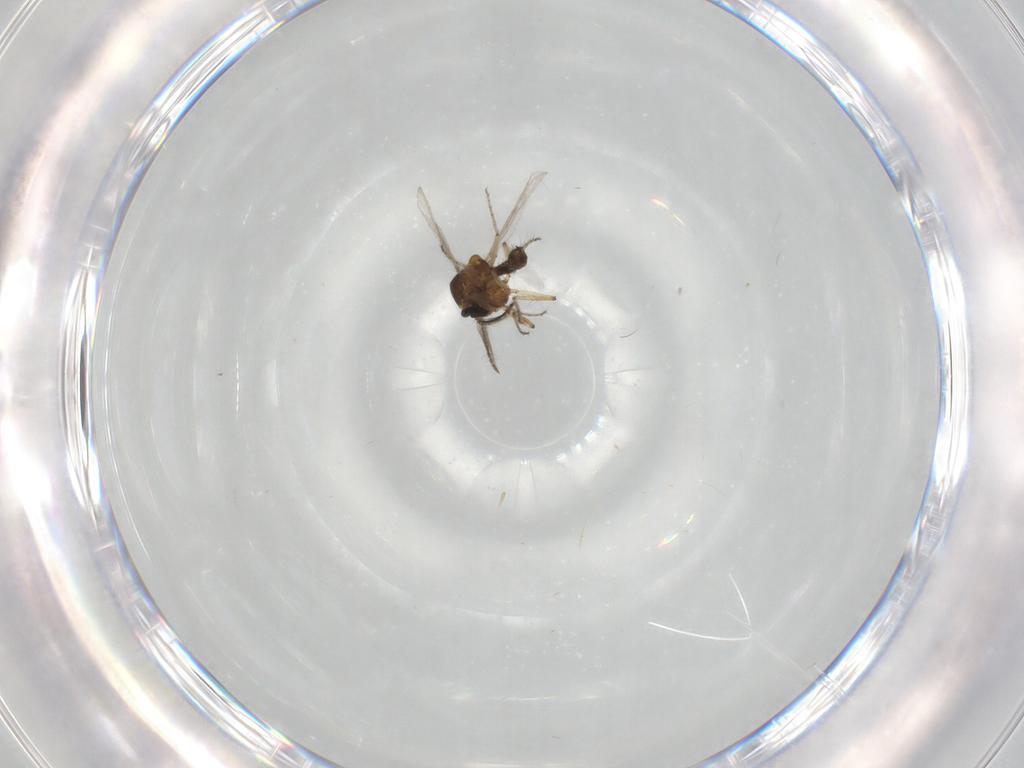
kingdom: Animalia
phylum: Arthropoda
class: Insecta
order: Diptera
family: Ceratopogonidae
